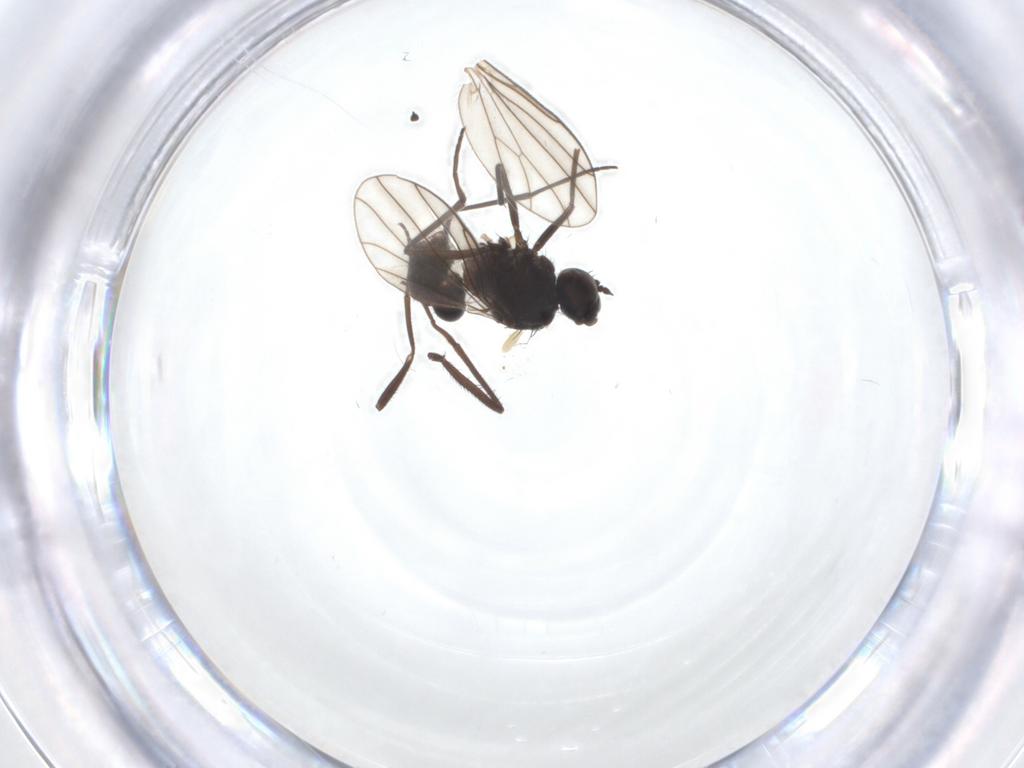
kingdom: Animalia
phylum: Arthropoda
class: Insecta
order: Diptera
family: Dolichopodidae
